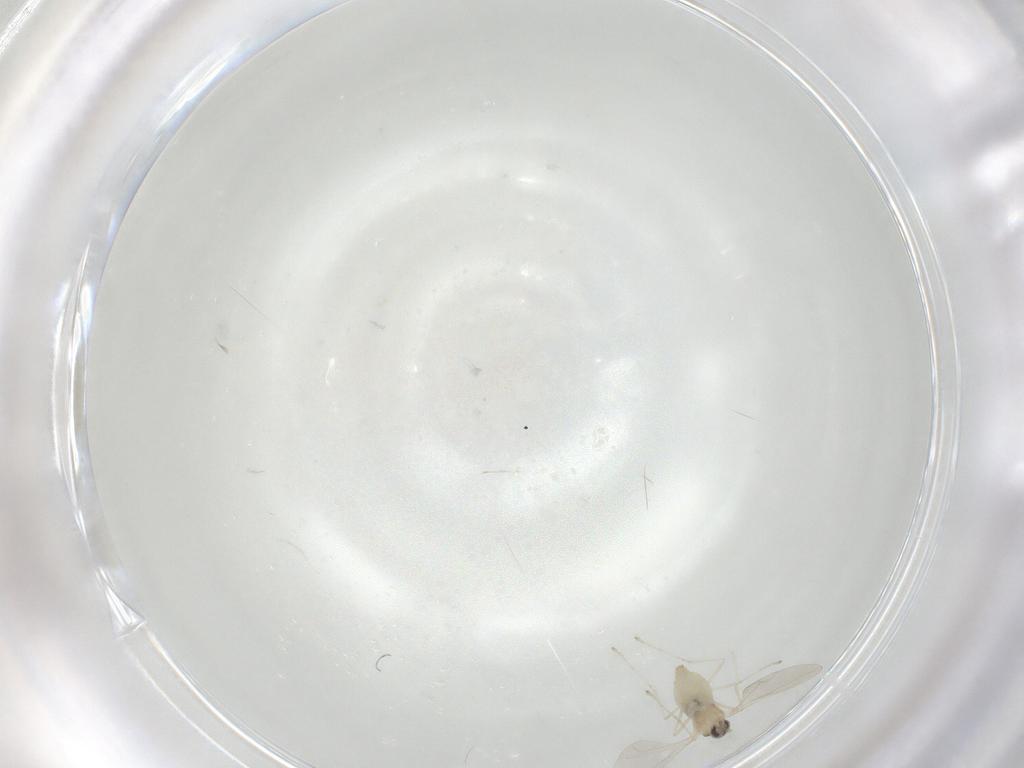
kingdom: Animalia
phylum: Arthropoda
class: Insecta
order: Diptera
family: Cecidomyiidae
